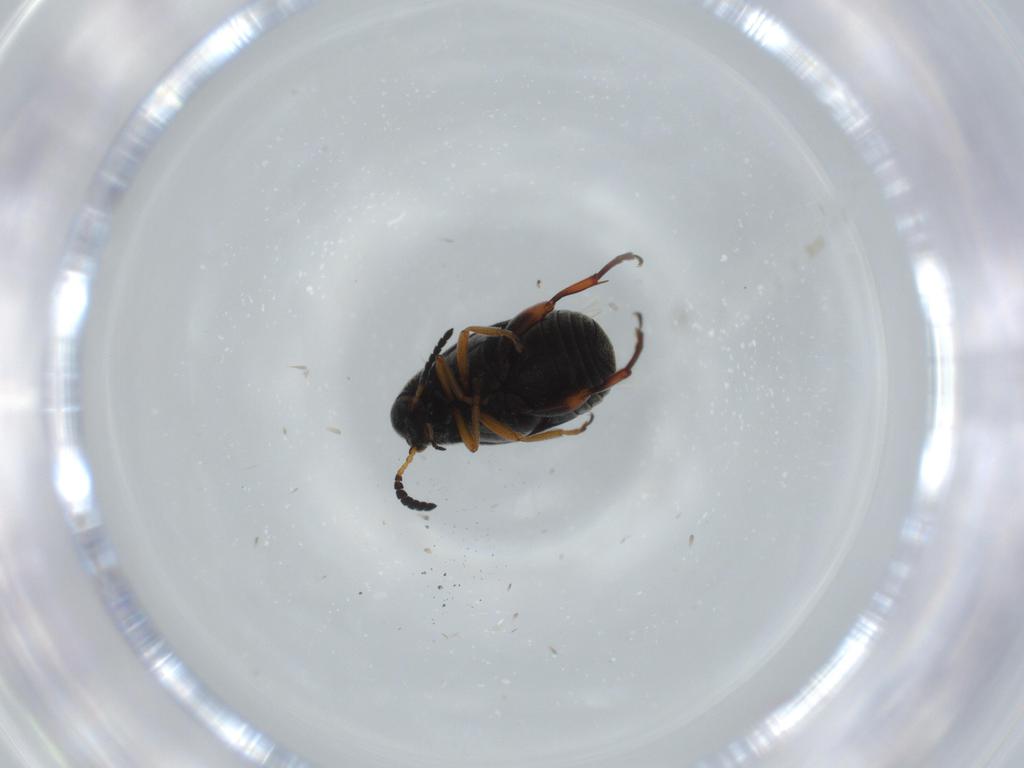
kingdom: Animalia
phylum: Arthropoda
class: Insecta
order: Coleoptera
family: Chrysomelidae
